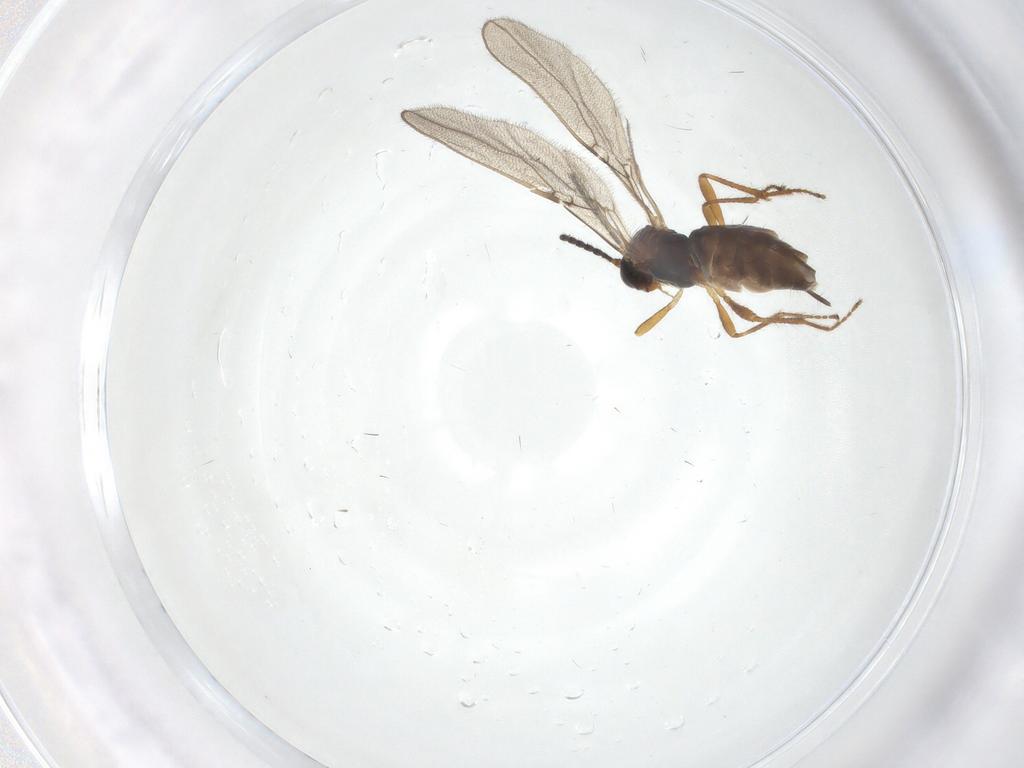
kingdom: Animalia
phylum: Arthropoda
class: Insecta
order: Hymenoptera
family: Braconidae
